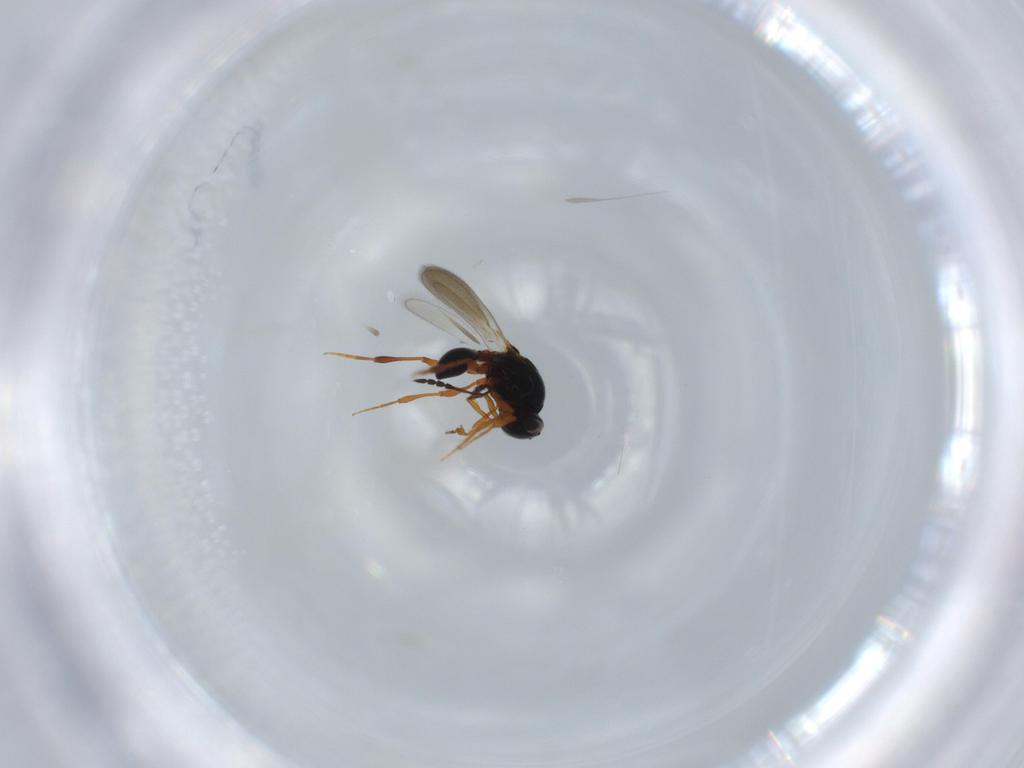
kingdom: Animalia
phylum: Arthropoda
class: Insecta
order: Hymenoptera
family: Platygastridae
